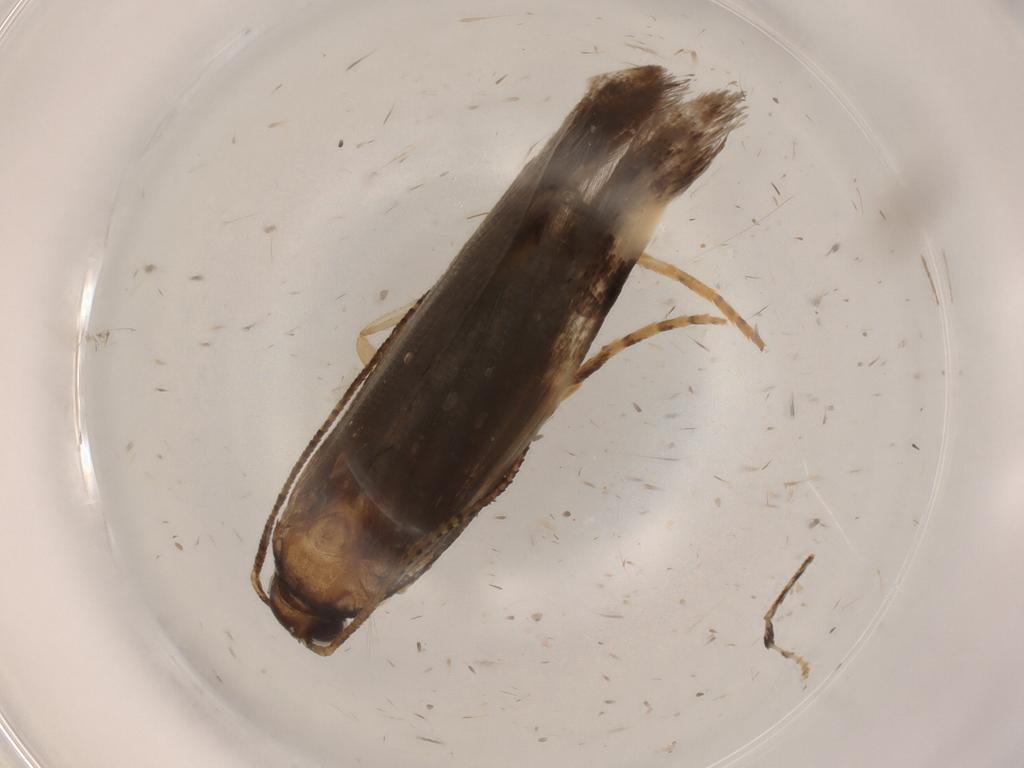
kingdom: Animalia
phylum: Arthropoda
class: Insecta
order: Lepidoptera
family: Gelechiidae
